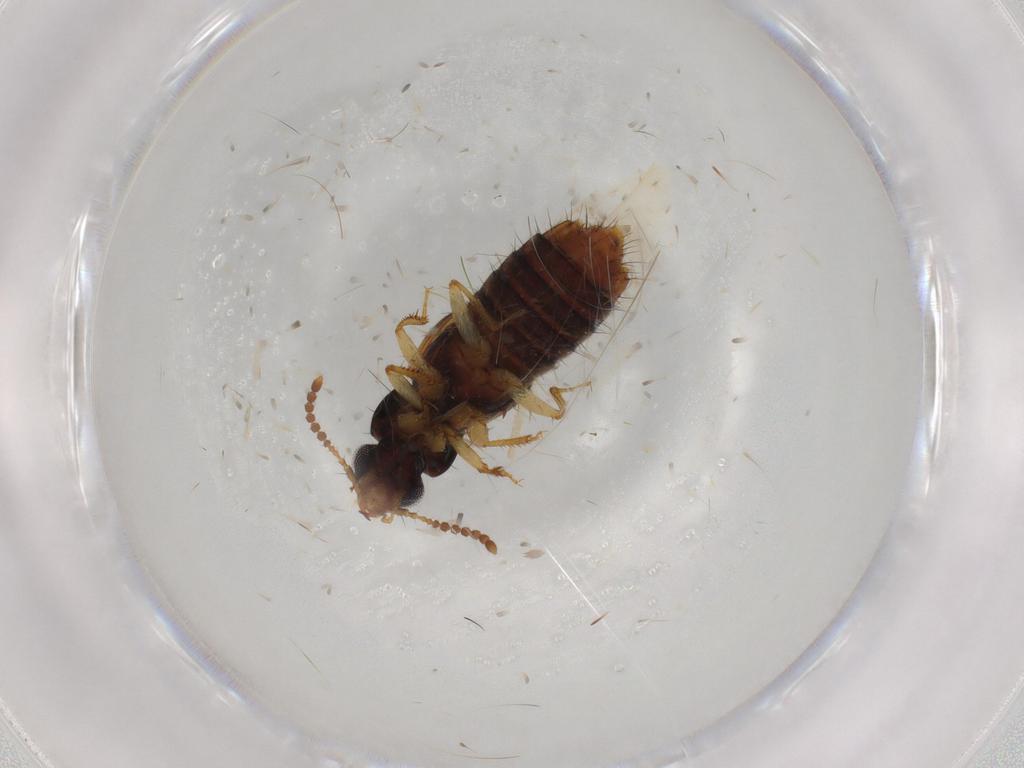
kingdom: Animalia
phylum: Arthropoda
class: Insecta
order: Coleoptera
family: Staphylinidae
